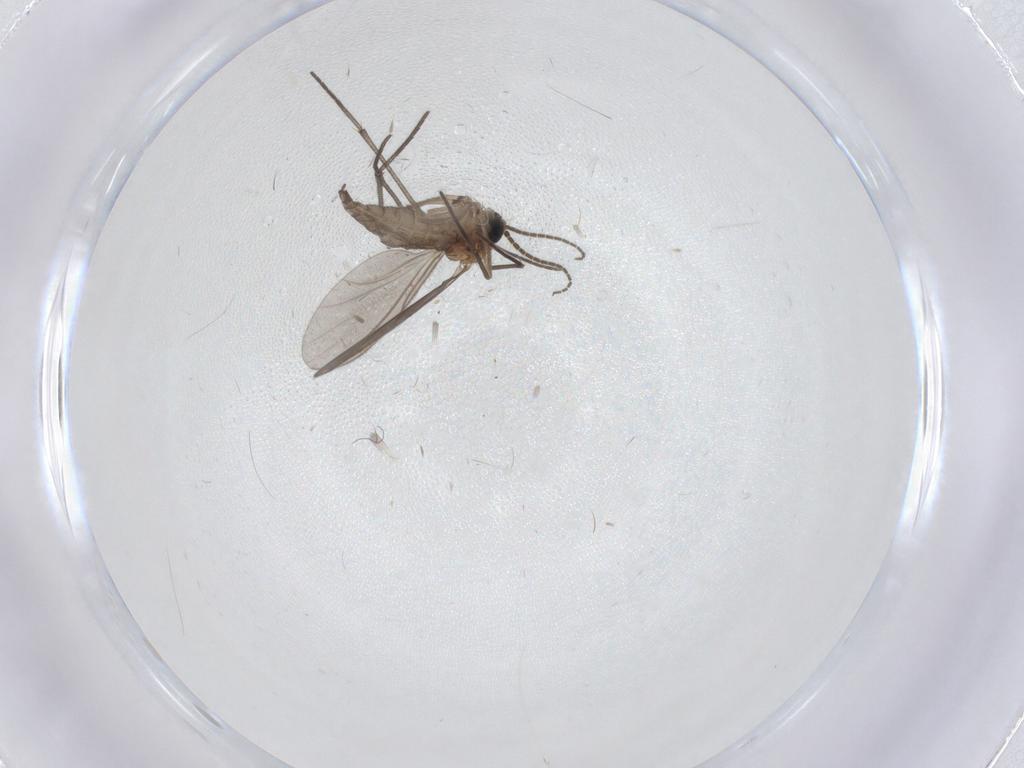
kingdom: Animalia
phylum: Arthropoda
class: Insecta
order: Diptera
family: Sciaridae
